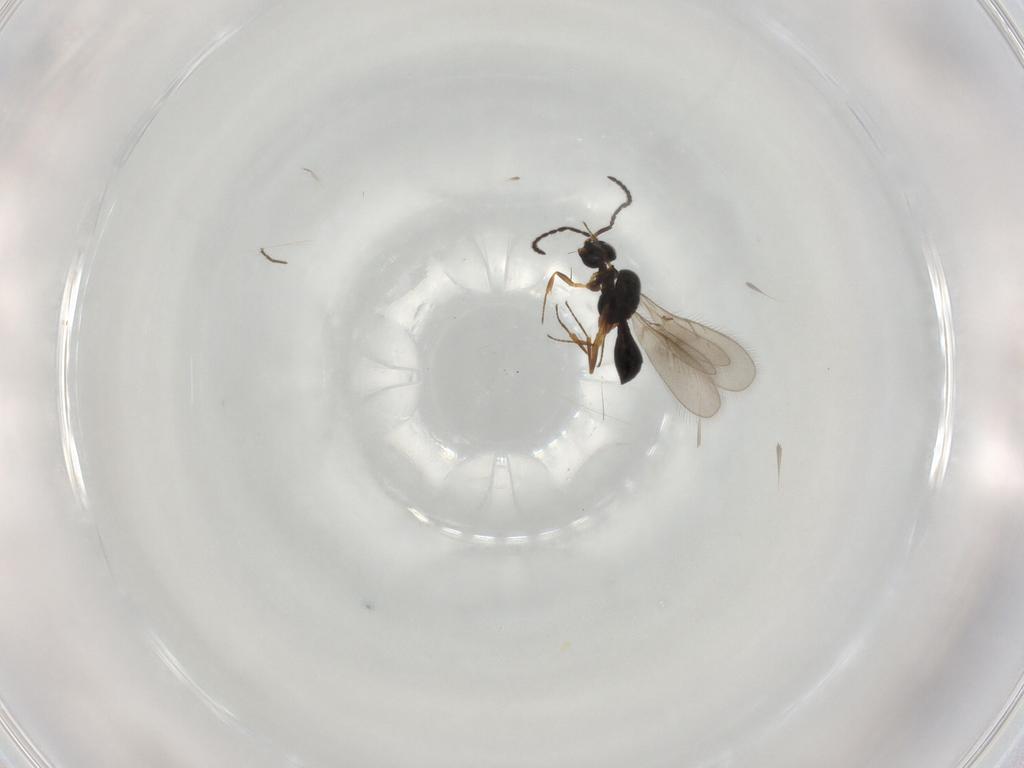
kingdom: Animalia
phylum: Arthropoda
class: Insecta
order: Hymenoptera
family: Scelionidae
